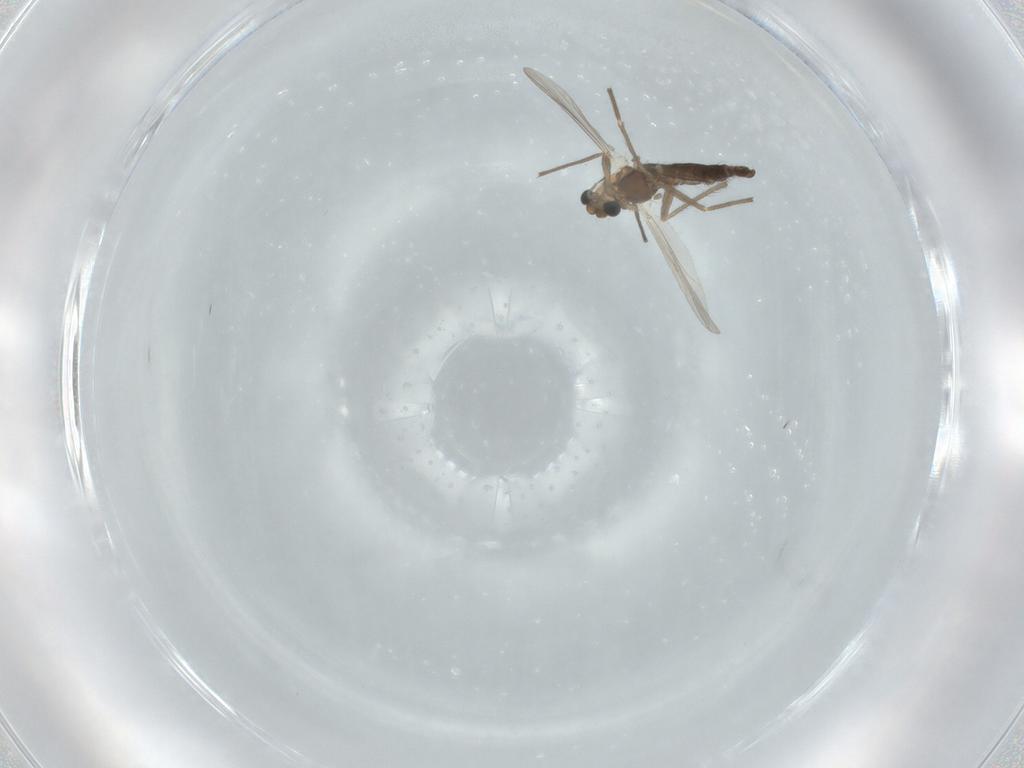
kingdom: Animalia
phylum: Arthropoda
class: Insecta
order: Diptera
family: Chironomidae
